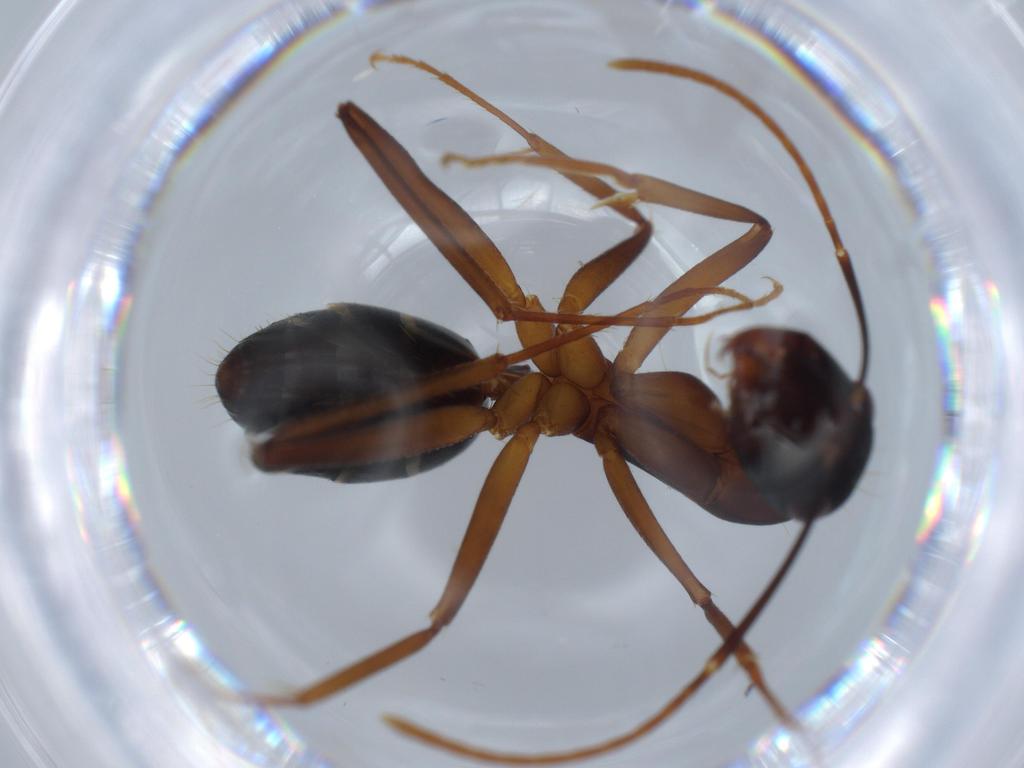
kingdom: Animalia
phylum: Arthropoda
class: Insecta
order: Hymenoptera
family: Formicidae
